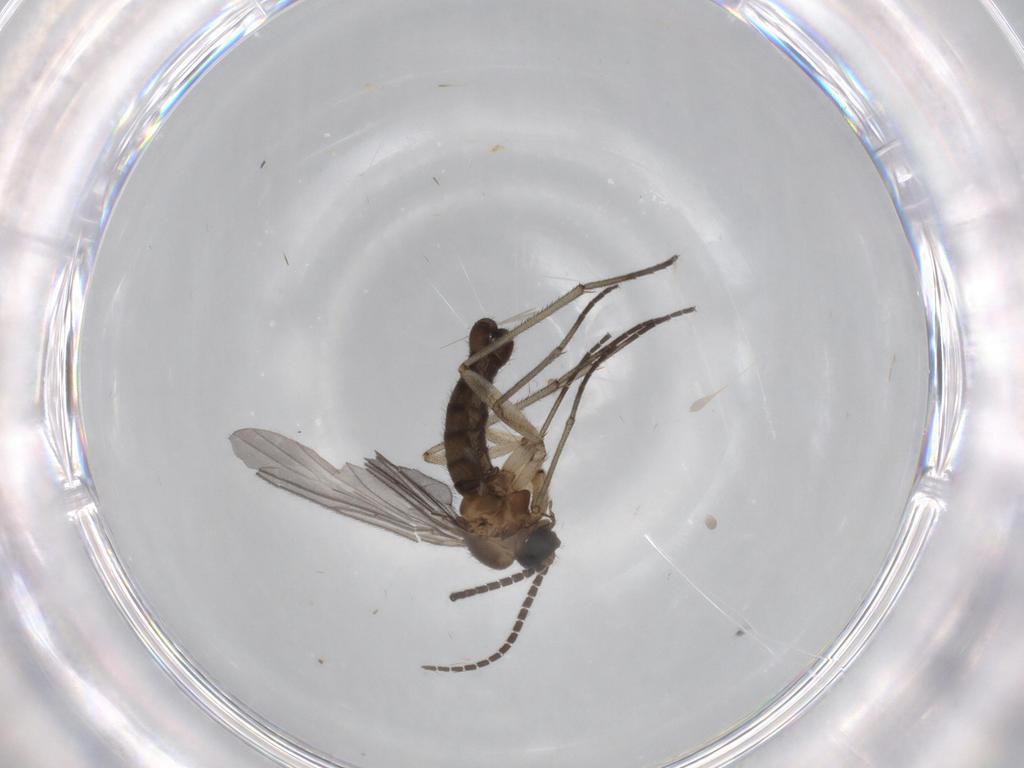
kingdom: Animalia
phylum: Arthropoda
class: Insecta
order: Diptera
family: Sciaridae
